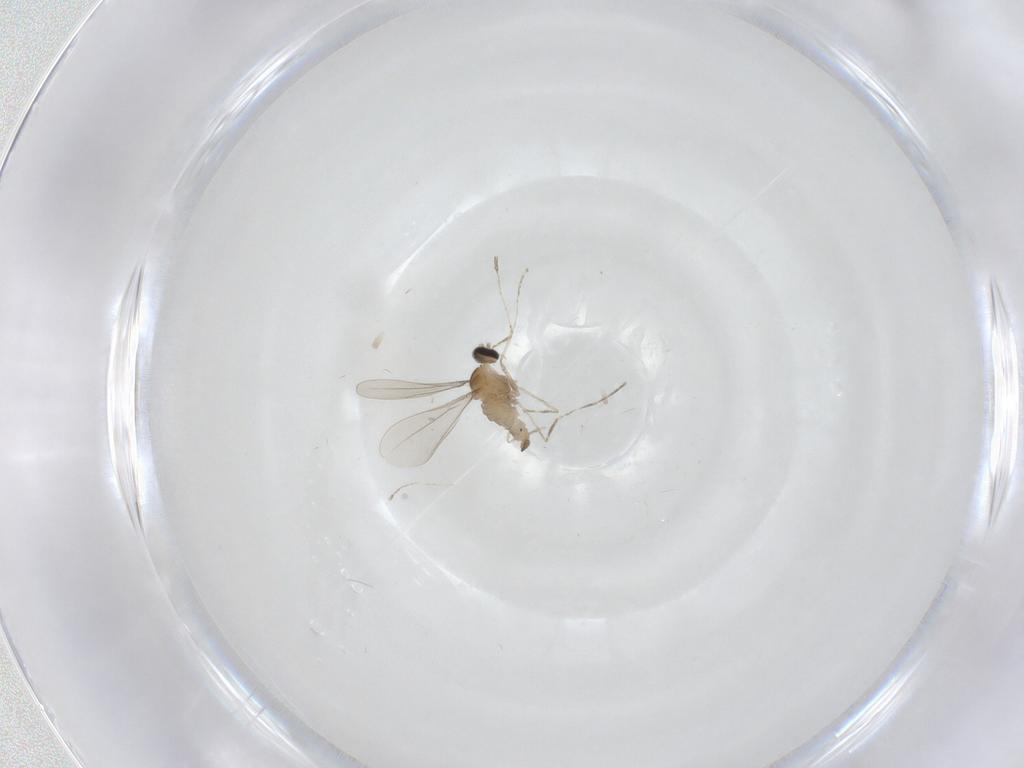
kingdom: Animalia
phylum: Arthropoda
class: Insecta
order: Diptera
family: Cecidomyiidae
